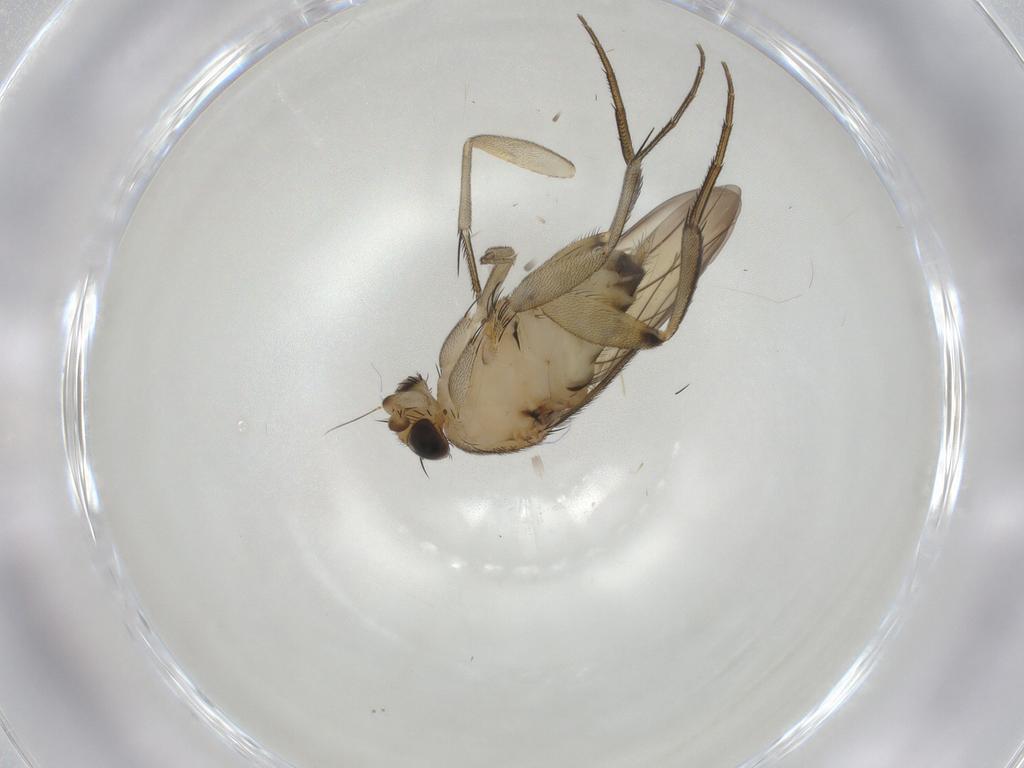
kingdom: Animalia
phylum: Arthropoda
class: Insecta
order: Diptera
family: Phoridae
